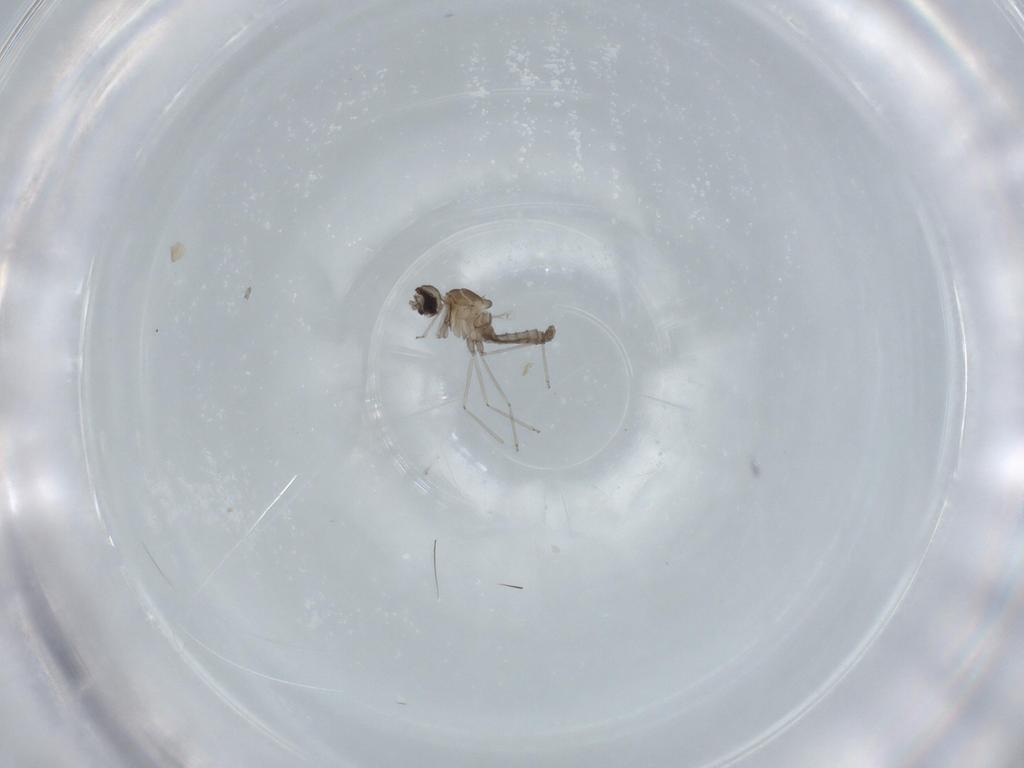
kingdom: Animalia
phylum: Arthropoda
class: Insecta
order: Diptera
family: Cecidomyiidae
